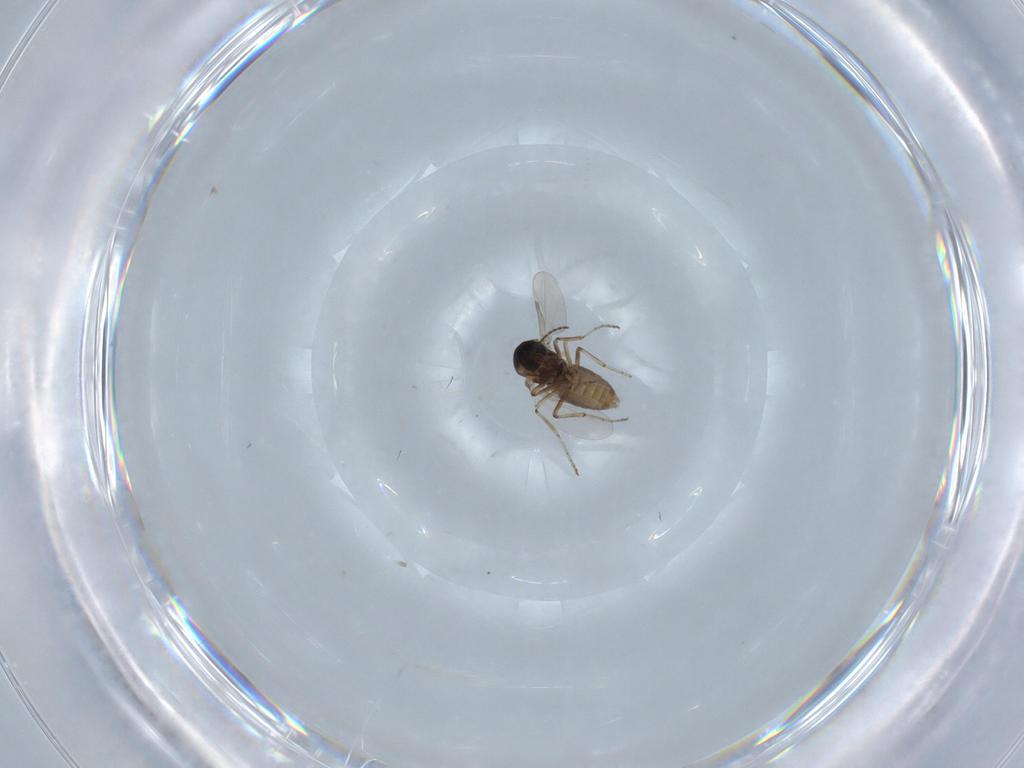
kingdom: Animalia
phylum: Arthropoda
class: Insecta
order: Diptera
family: Ceratopogonidae
